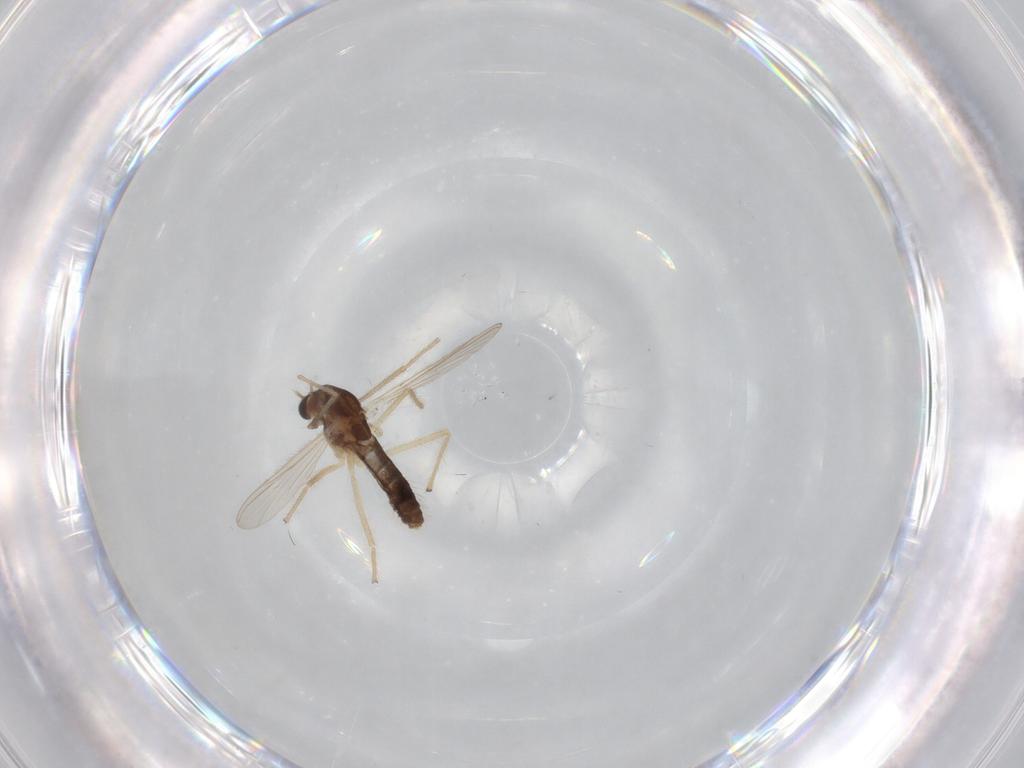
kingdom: Animalia
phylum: Arthropoda
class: Insecta
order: Diptera
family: Chironomidae
